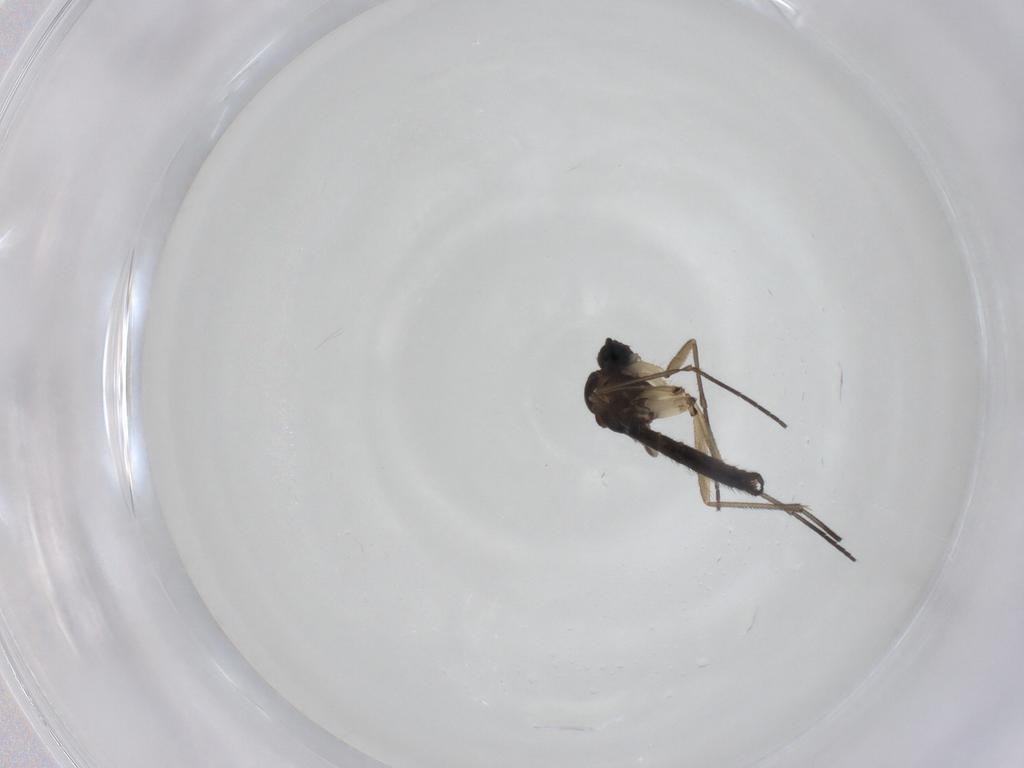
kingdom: Animalia
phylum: Arthropoda
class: Insecta
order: Diptera
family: Sciaridae
